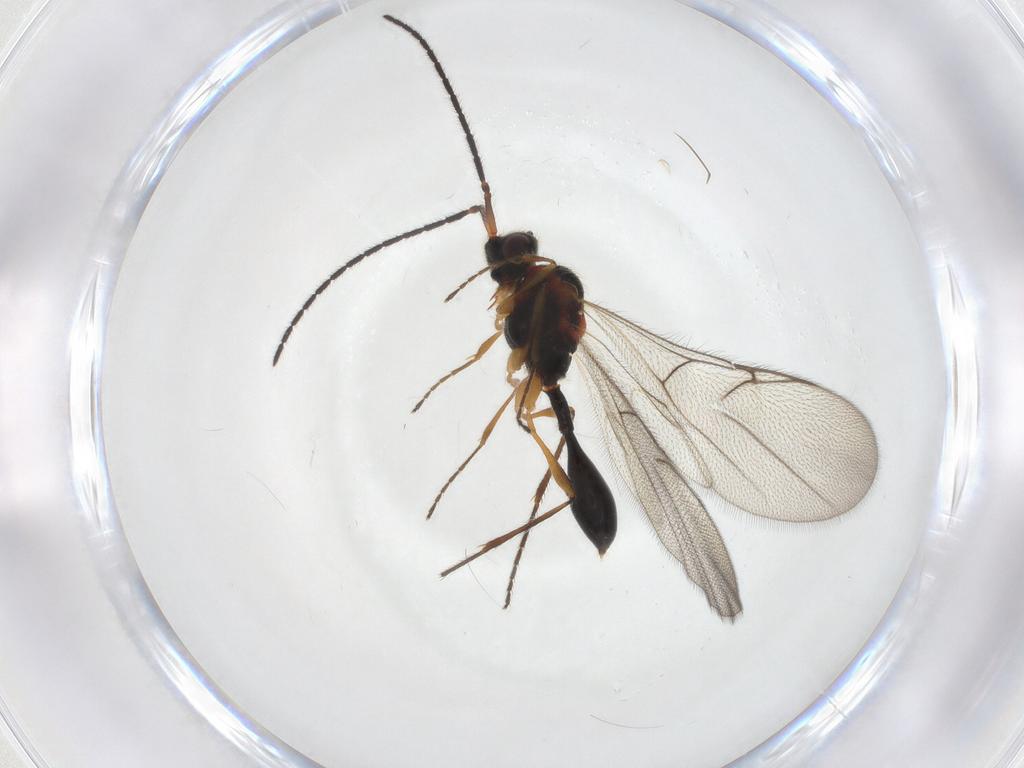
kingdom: Animalia
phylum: Arthropoda
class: Insecta
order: Hymenoptera
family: Diapriidae
